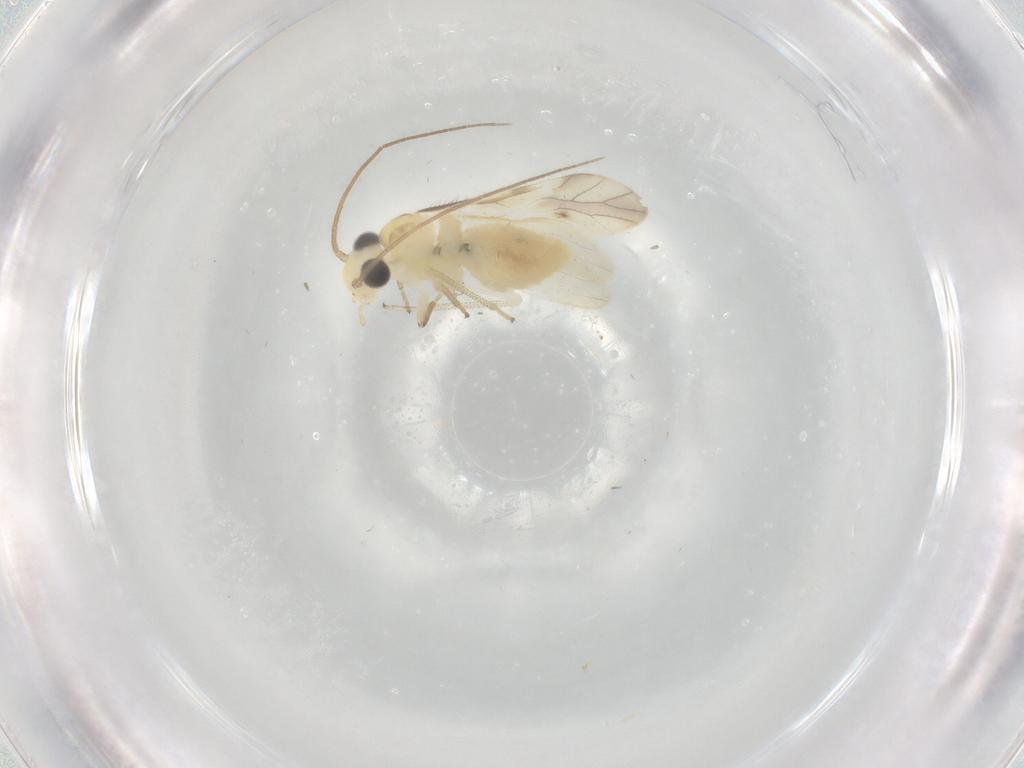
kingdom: Animalia
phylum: Arthropoda
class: Insecta
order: Psocodea
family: Caeciliusidae
